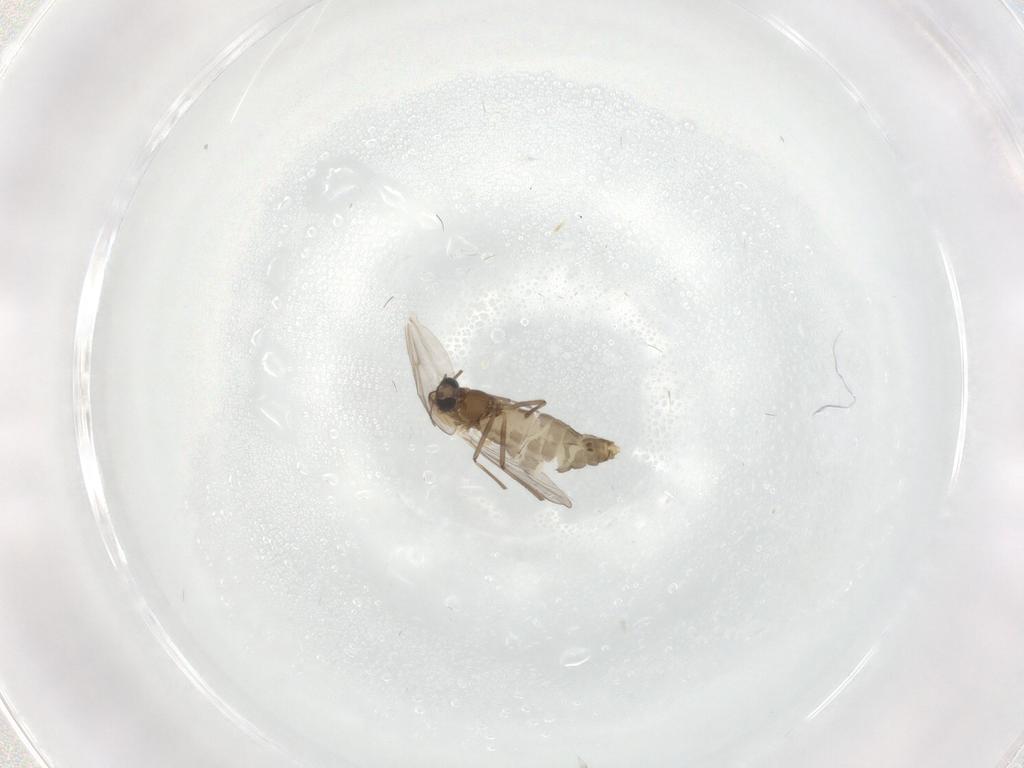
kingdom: Animalia
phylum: Arthropoda
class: Insecta
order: Diptera
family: Chironomidae
